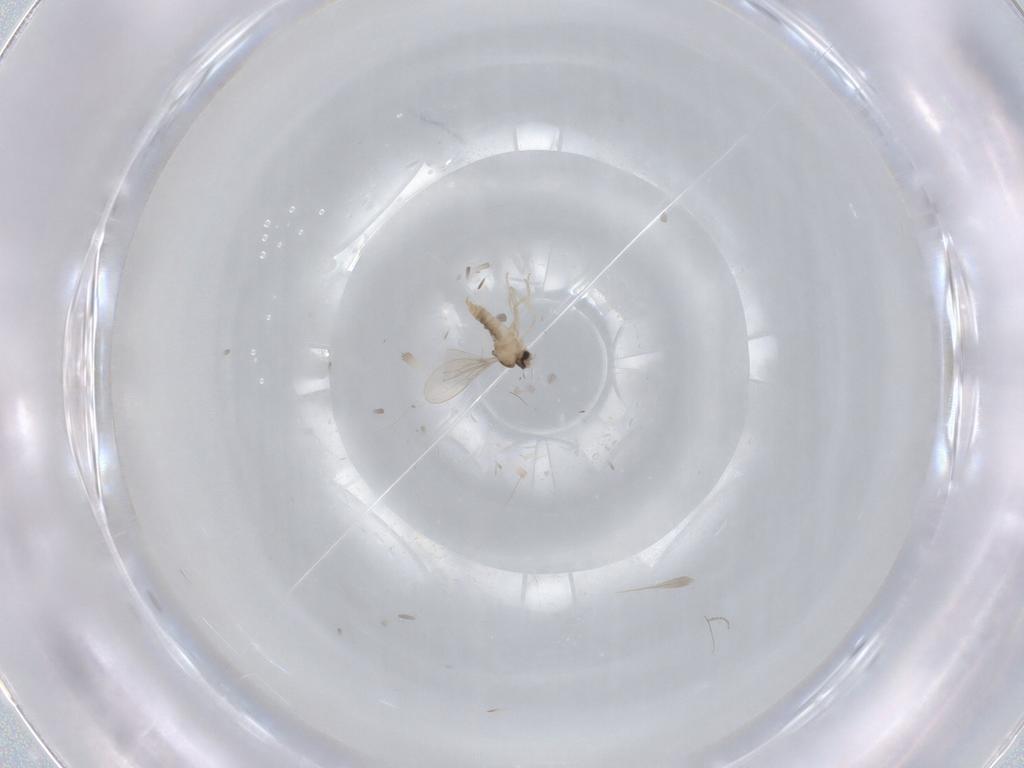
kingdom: Animalia
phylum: Arthropoda
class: Insecta
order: Diptera
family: Cecidomyiidae
